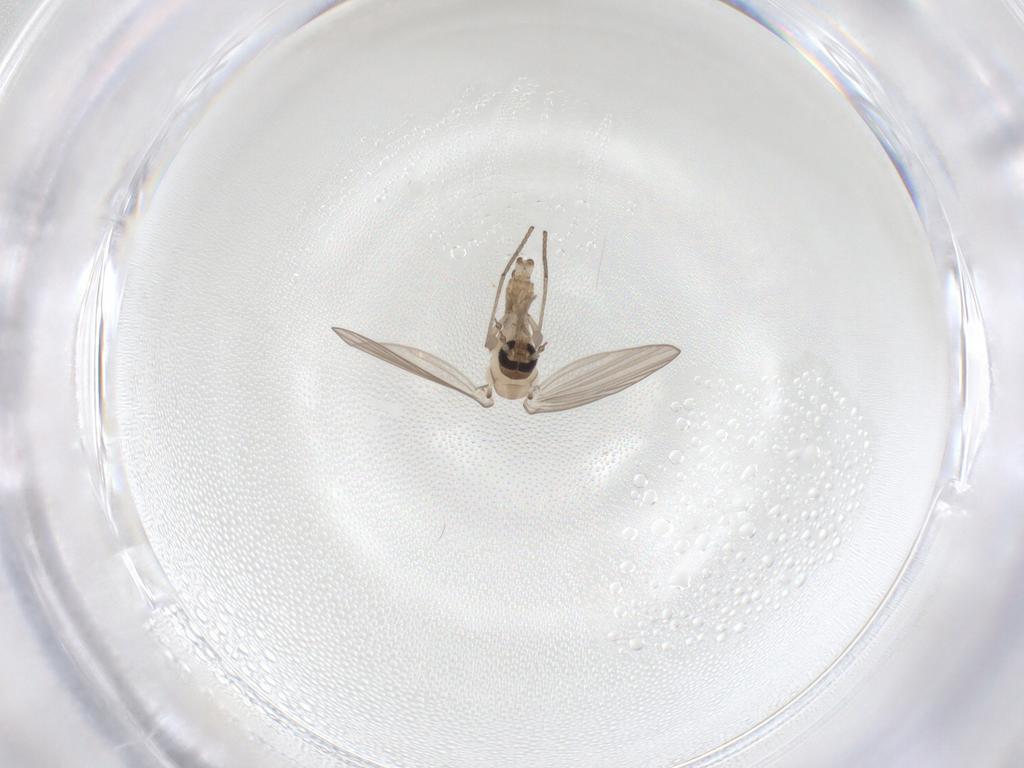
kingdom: Animalia
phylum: Arthropoda
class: Insecta
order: Diptera
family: Psychodidae
